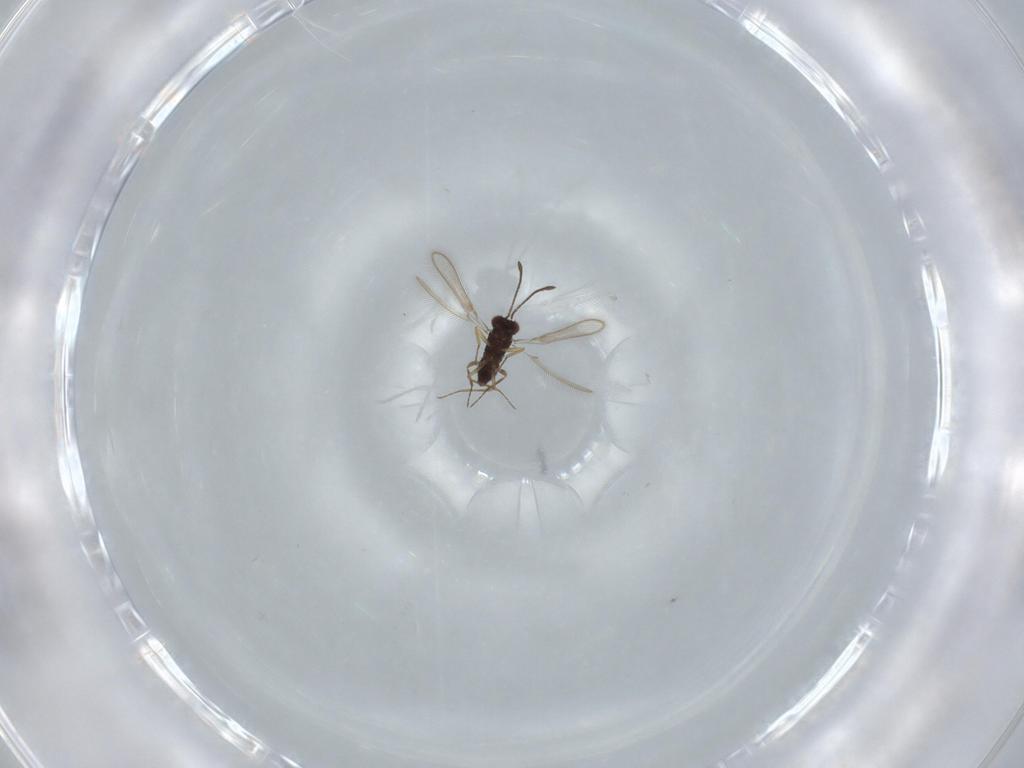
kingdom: Animalia
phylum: Arthropoda
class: Insecta
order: Hymenoptera
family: Mymaridae
